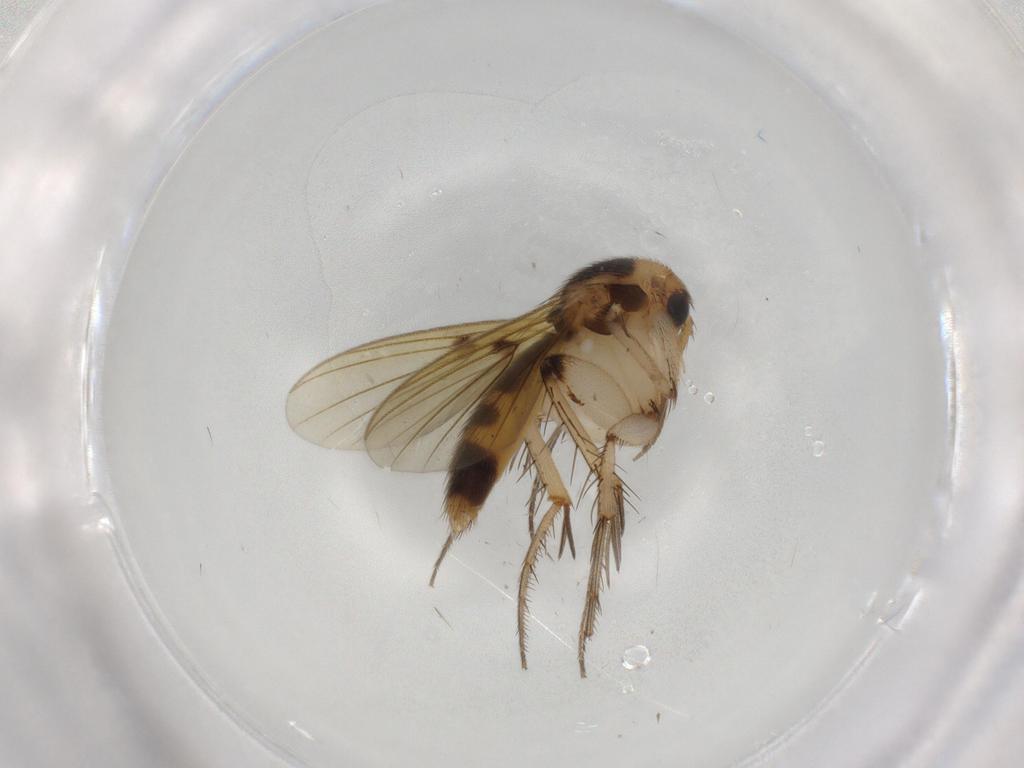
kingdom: Animalia
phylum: Arthropoda
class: Insecta
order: Diptera
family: Mycetophilidae
